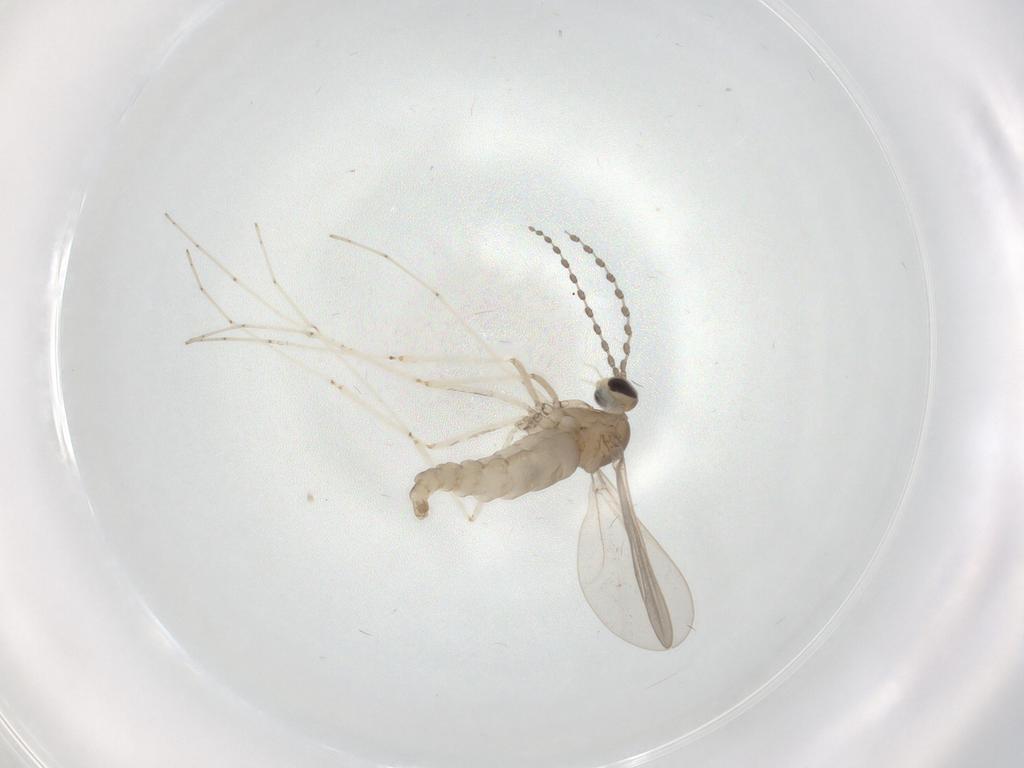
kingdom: Animalia
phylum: Arthropoda
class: Insecta
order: Diptera
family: Cecidomyiidae
